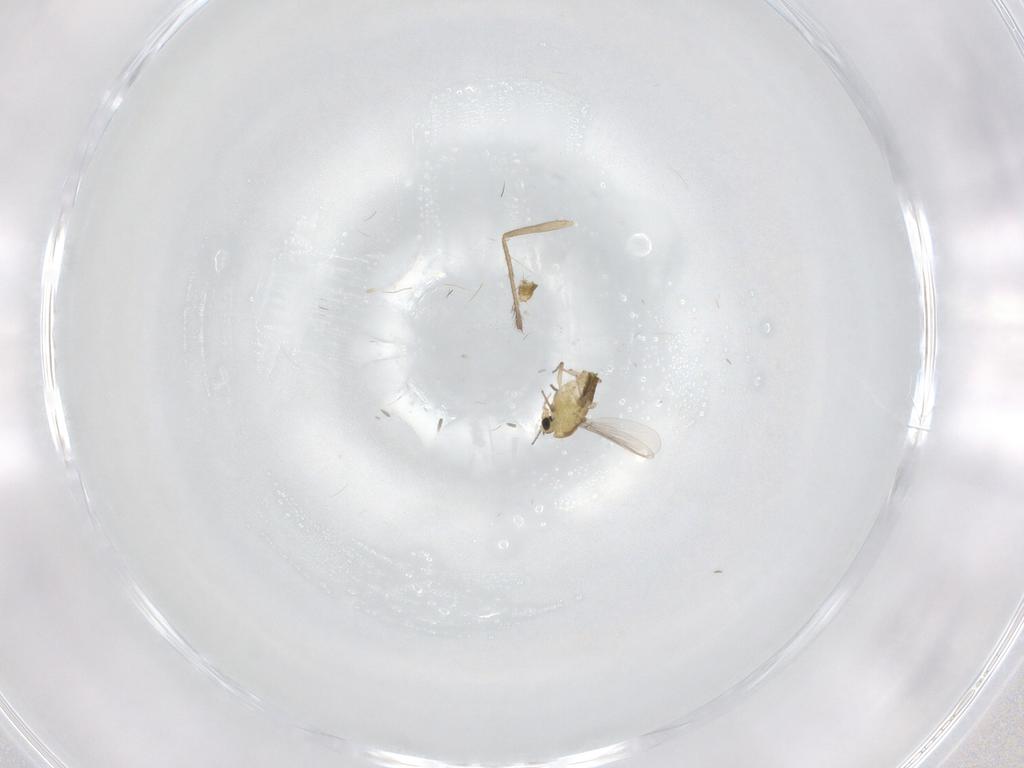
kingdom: Animalia
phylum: Arthropoda
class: Insecta
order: Diptera
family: Chironomidae
